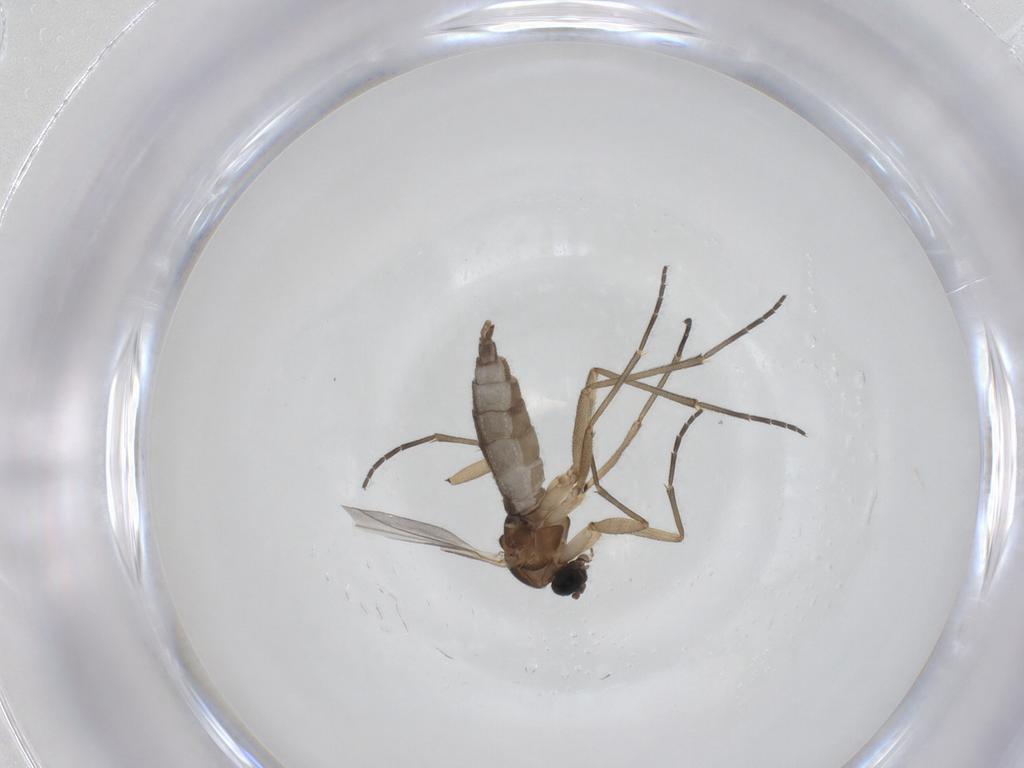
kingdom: Animalia
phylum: Arthropoda
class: Insecta
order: Diptera
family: Sciaridae
